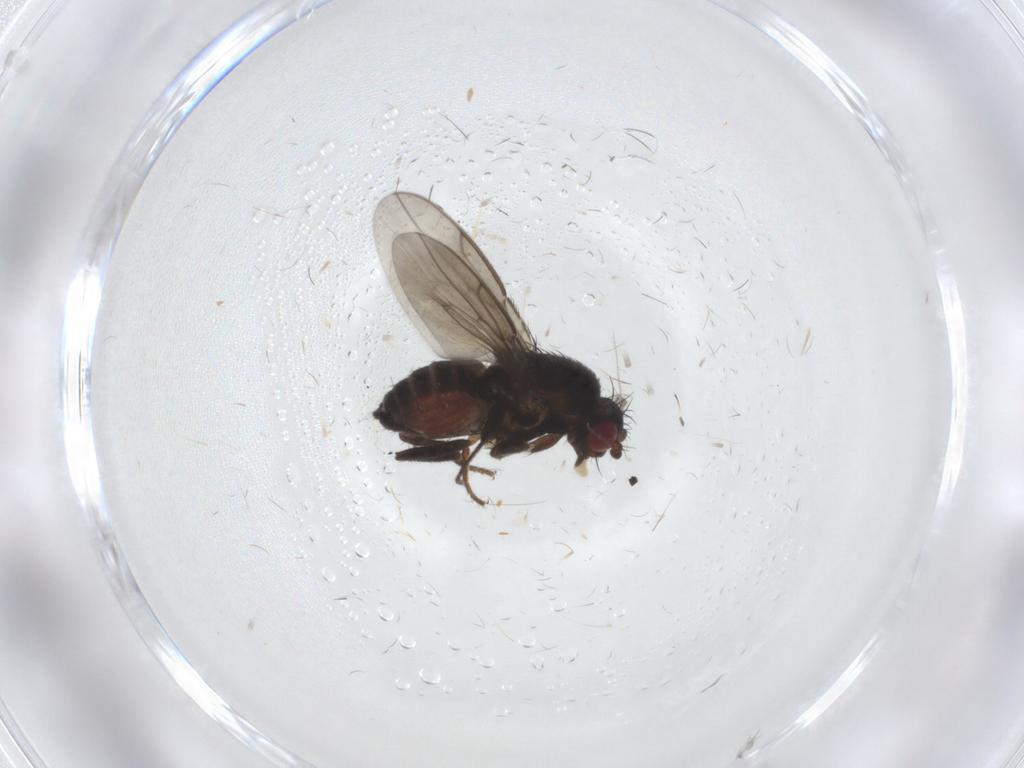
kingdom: Animalia
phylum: Arthropoda
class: Insecta
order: Diptera
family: Sphaeroceridae
